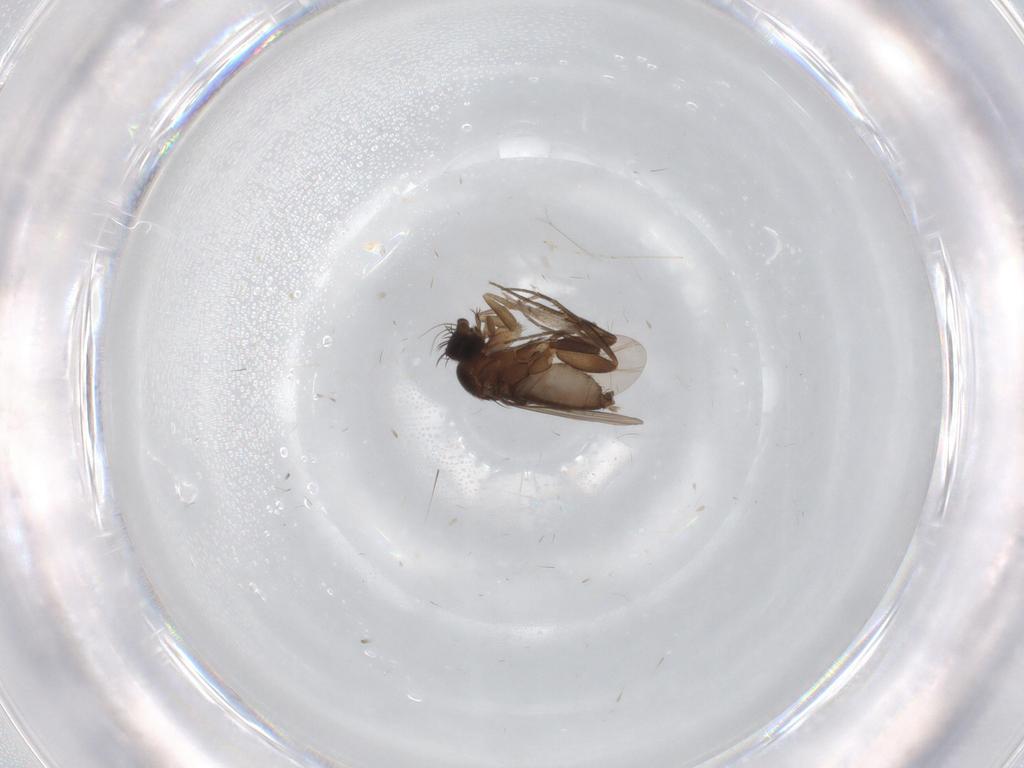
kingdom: Animalia
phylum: Arthropoda
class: Insecta
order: Diptera
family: Phoridae
